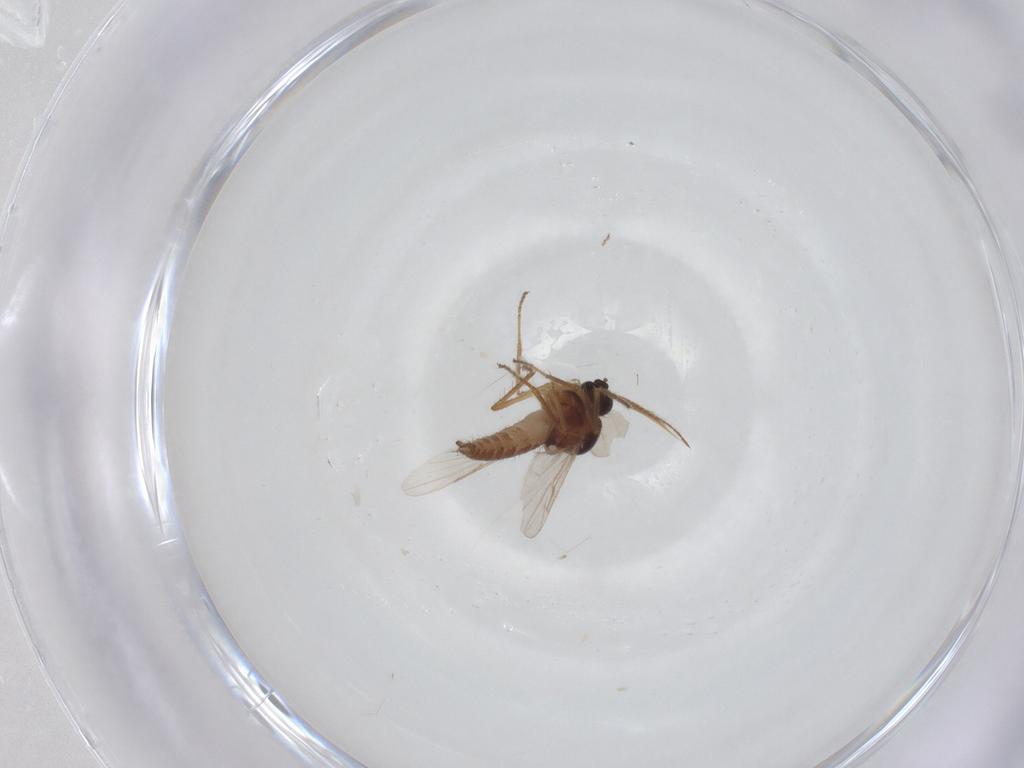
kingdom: Animalia
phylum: Arthropoda
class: Insecta
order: Diptera
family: Ceratopogonidae
